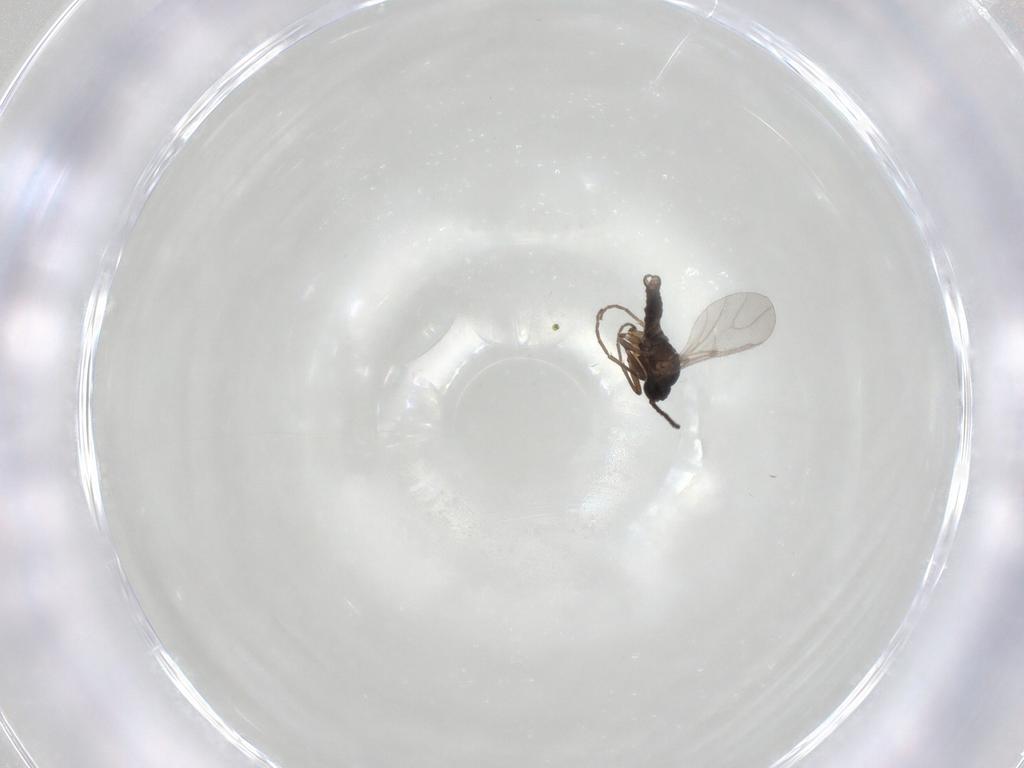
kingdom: Animalia
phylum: Arthropoda
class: Insecta
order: Diptera
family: Sciaridae
